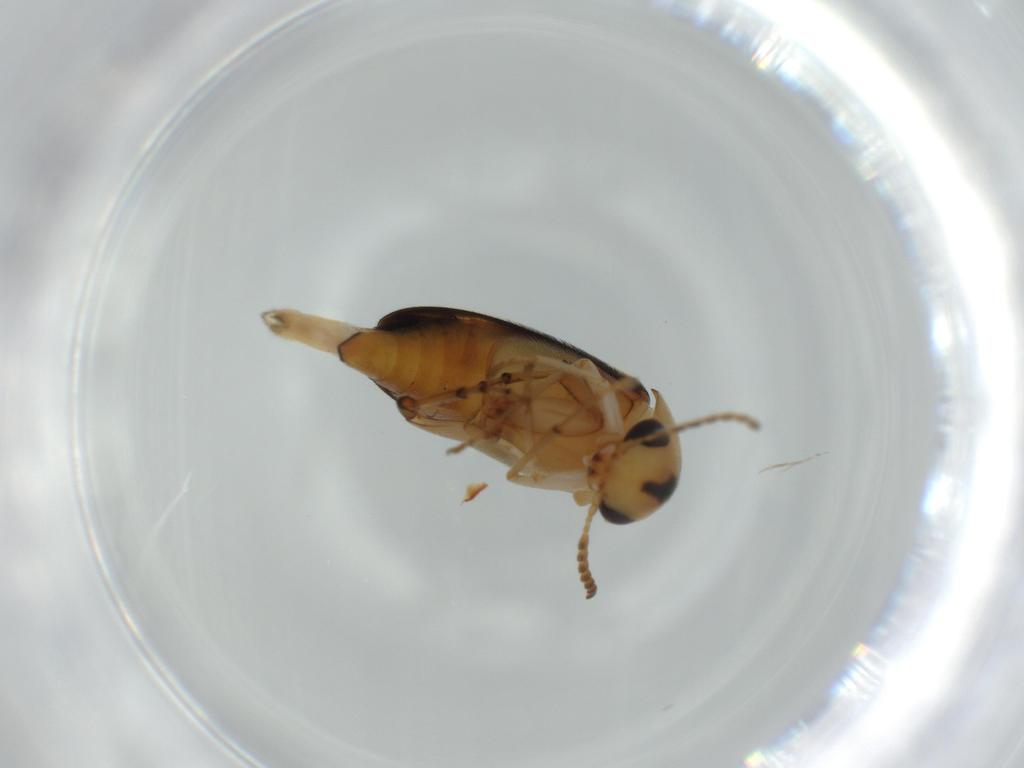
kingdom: Animalia
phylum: Arthropoda
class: Insecta
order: Coleoptera
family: Mordellidae
